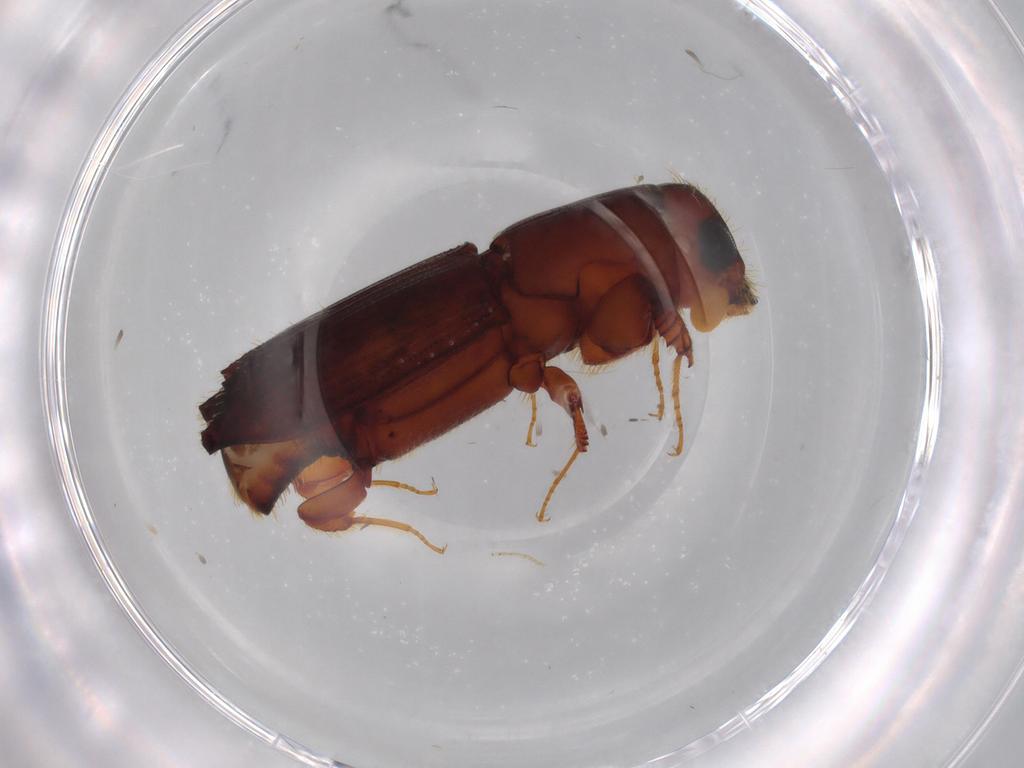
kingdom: Animalia
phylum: Arthropoda
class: Insecta
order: Coleoptera
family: Curculionidae
